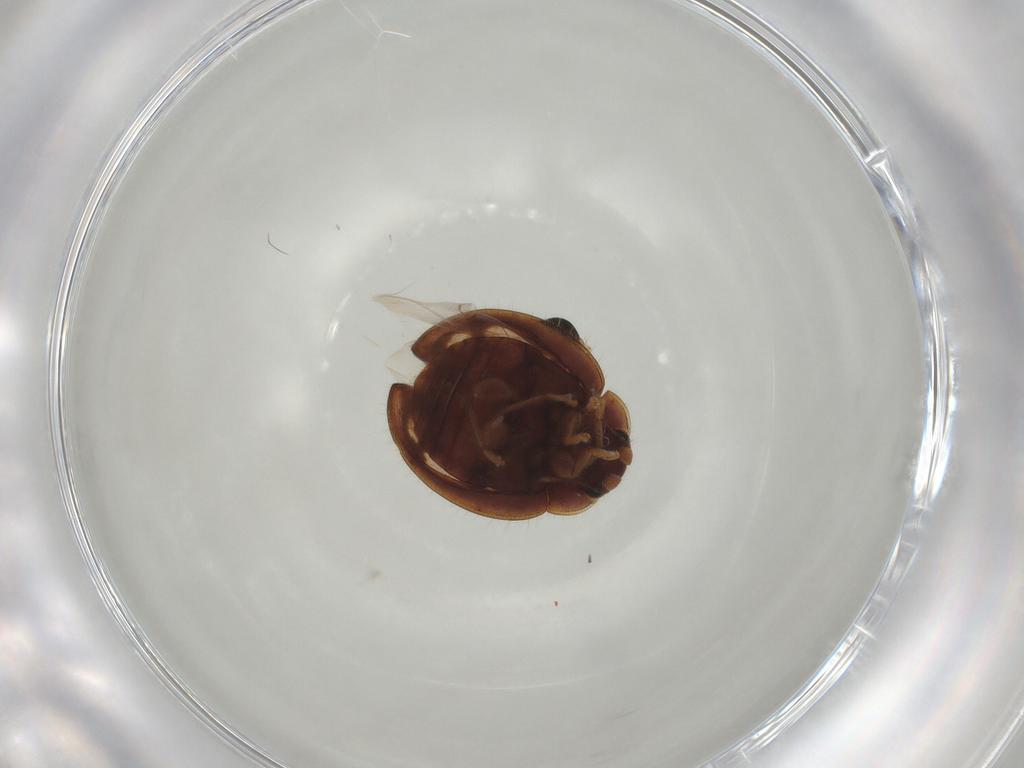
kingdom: Animalia
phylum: Arthropoda
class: Insecta
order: Coleoptera
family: Coccinellidae
